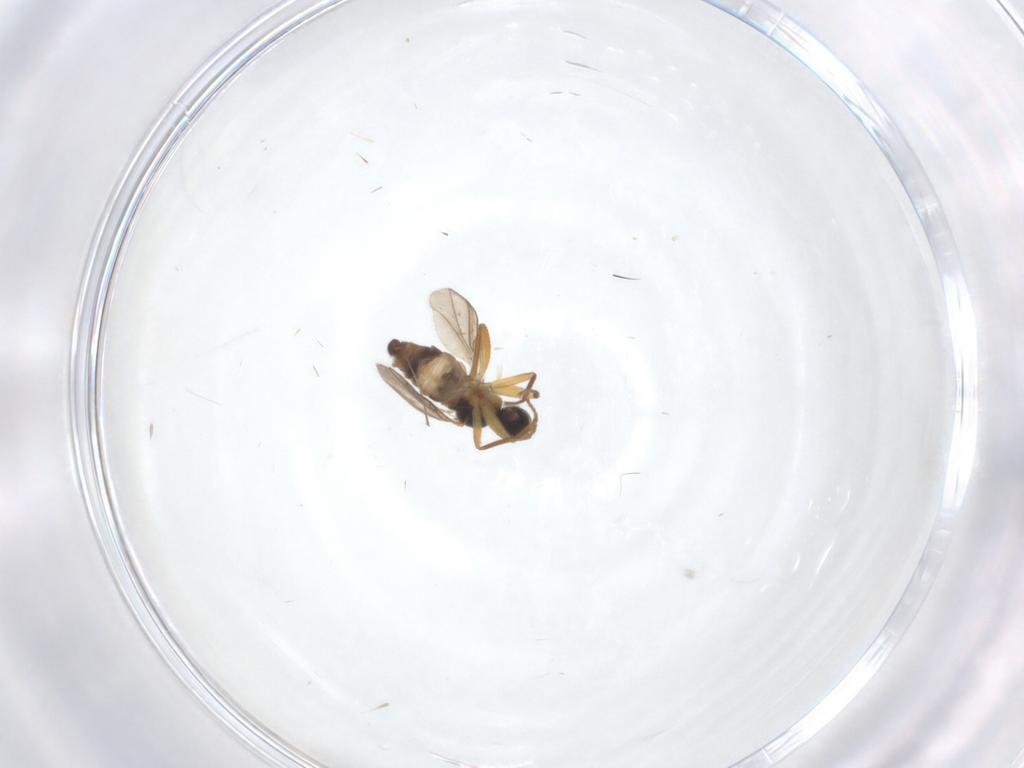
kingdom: Animalia
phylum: Arthropoda
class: Insecta
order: Diptera
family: Hybotidae
